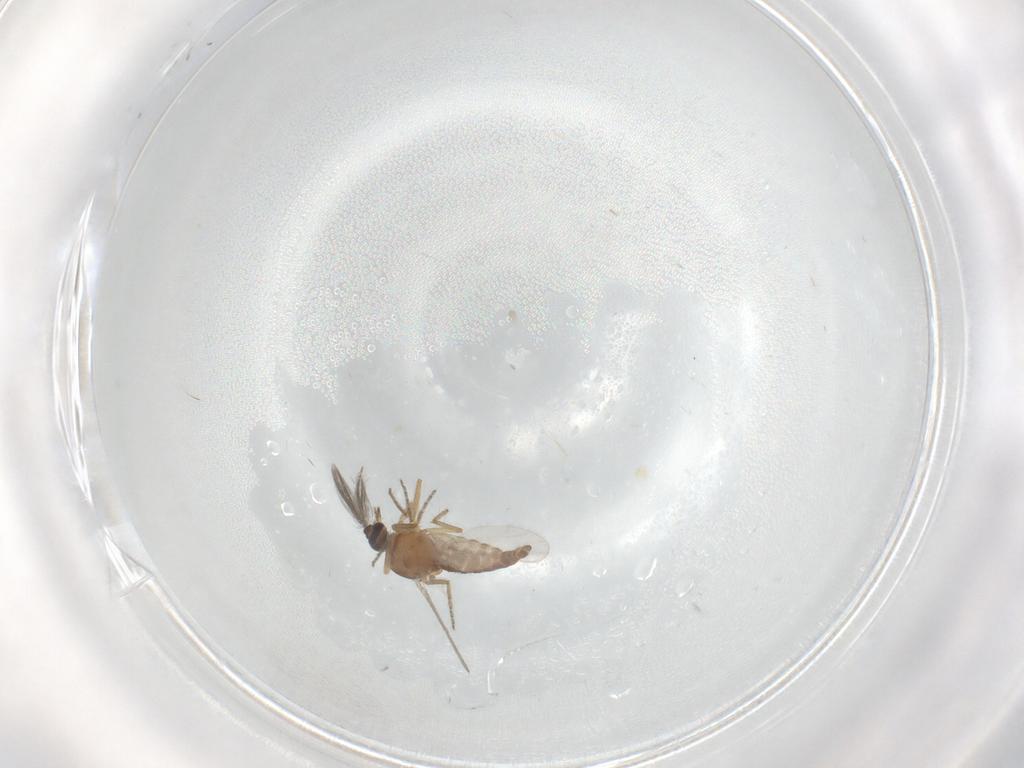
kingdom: Animalia
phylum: Arthropoda
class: Insecta
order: Diptera
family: Ceratopogonidae
